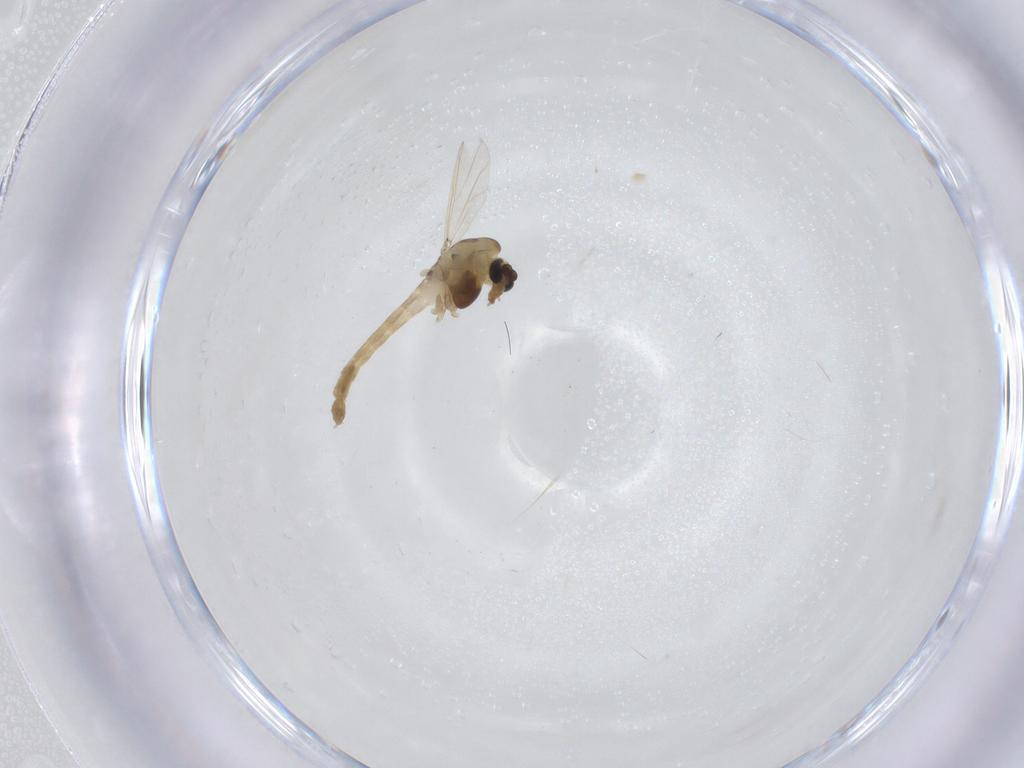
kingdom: Animalia
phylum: Arthropoda
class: Insecta
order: Diptera
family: Chironomidae
